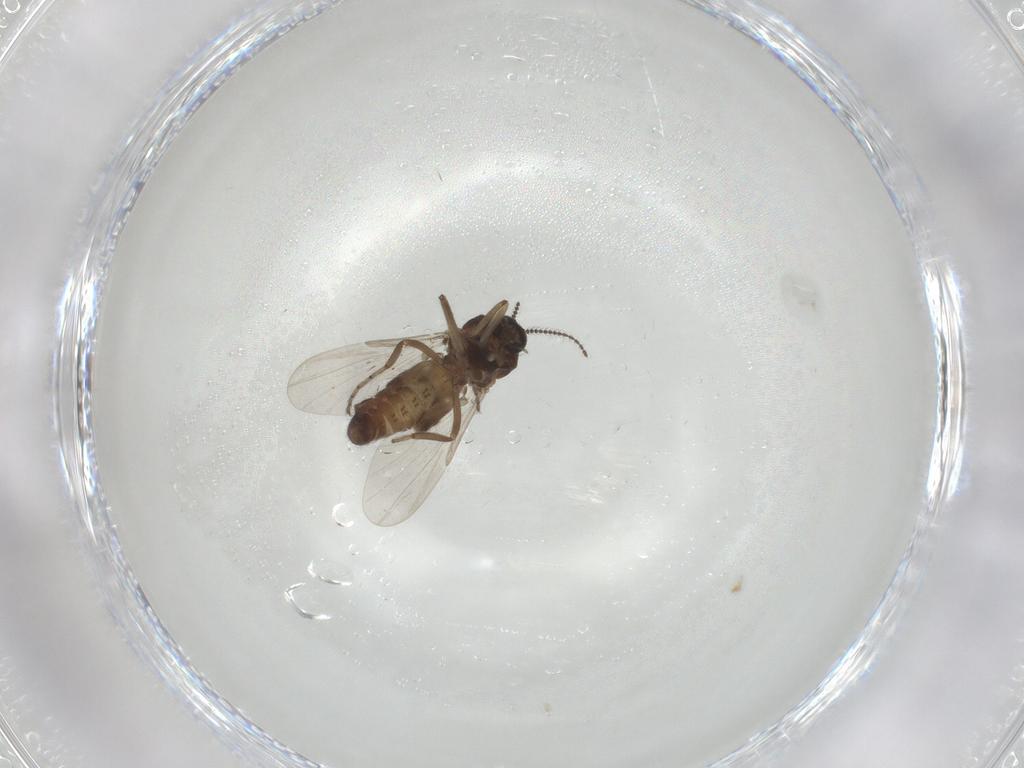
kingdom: Animalia
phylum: Arthropoda
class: Insecta
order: Diptera
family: Ceratopogonidae
